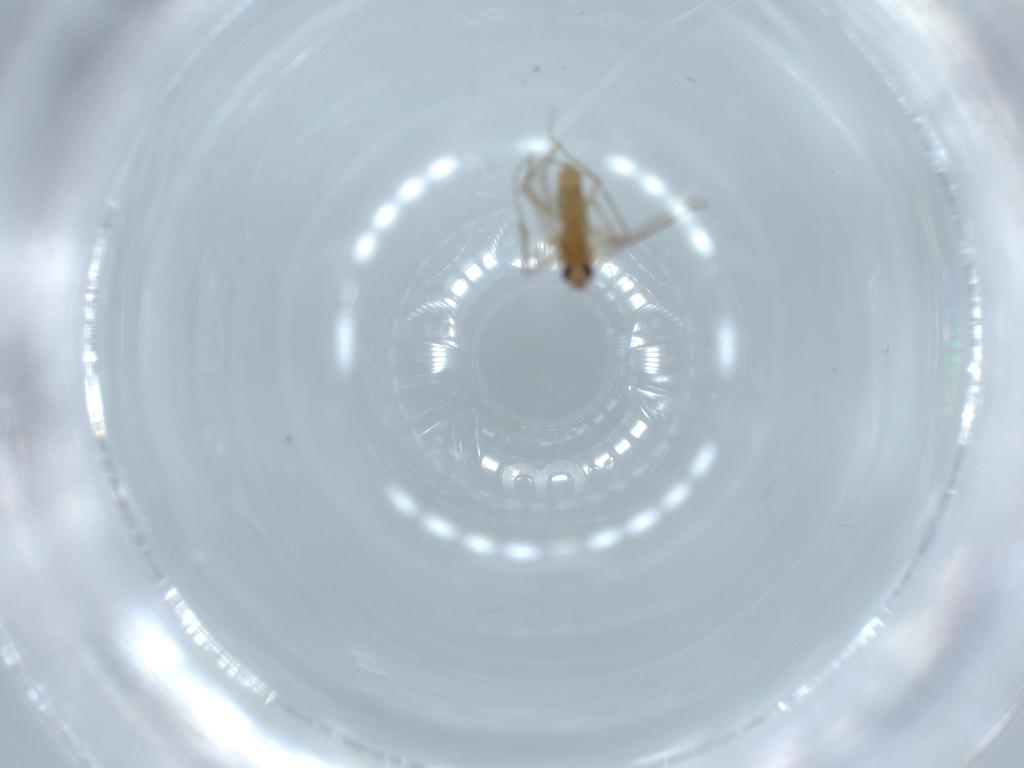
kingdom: Animalia
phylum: Arthropoda
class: Insecta
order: Diptera
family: Chironomidae
